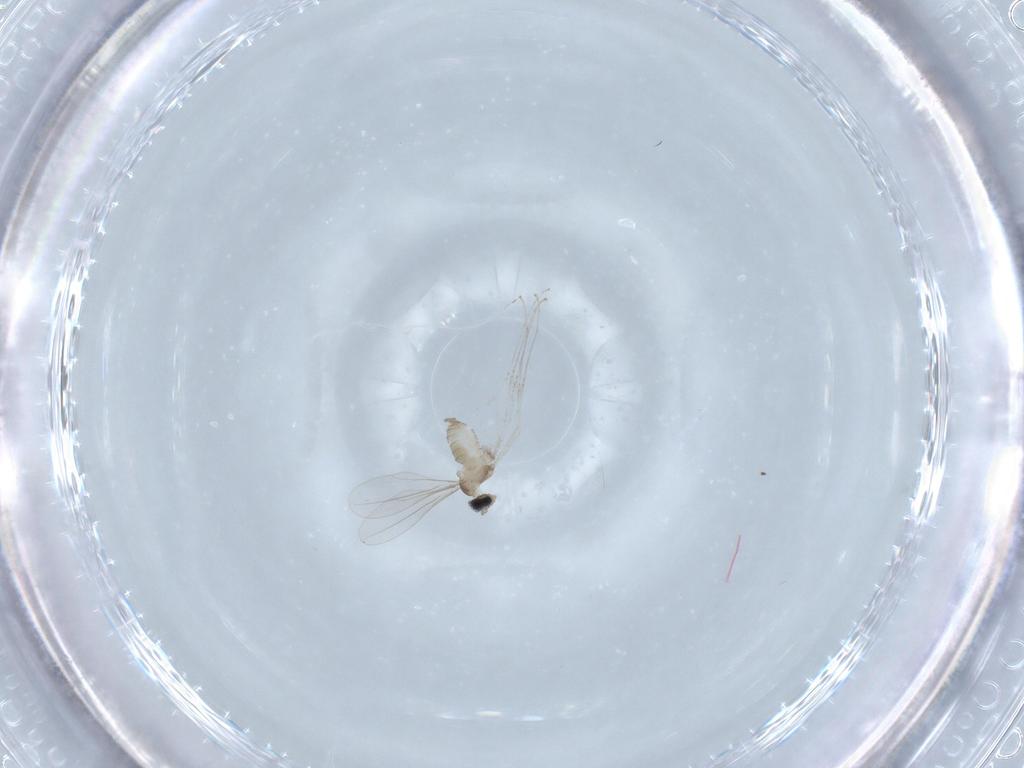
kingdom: Animalia
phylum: Arthropoda
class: Insecta
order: Diptera
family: Cecidomyiidae
